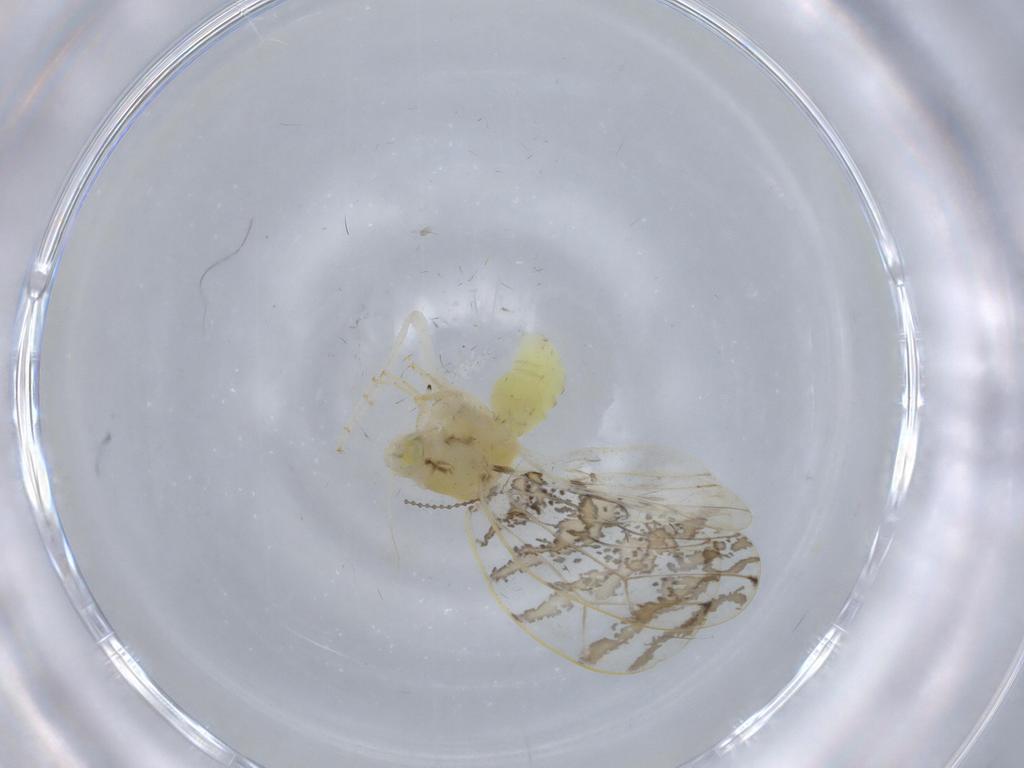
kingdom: Animalia
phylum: Arthropoda
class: Insecta
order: Hemiptera
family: Aleyrodidae
